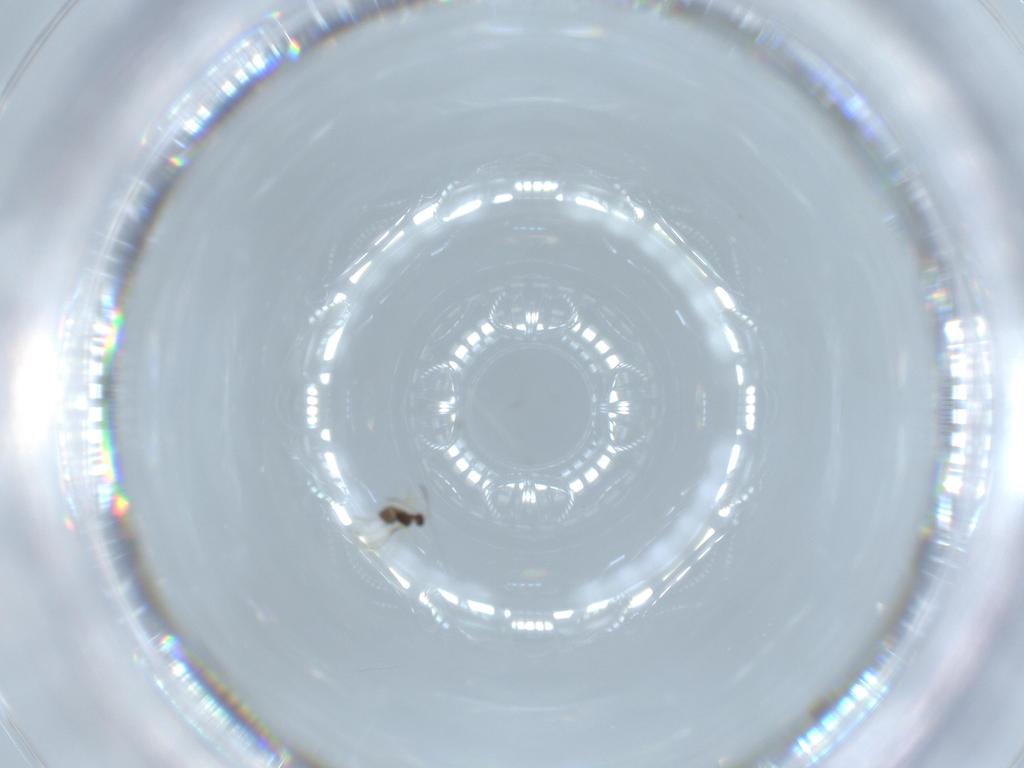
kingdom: Animalia
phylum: Arthropoda
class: Insecta
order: Hymenoptera
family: Mymaridae
